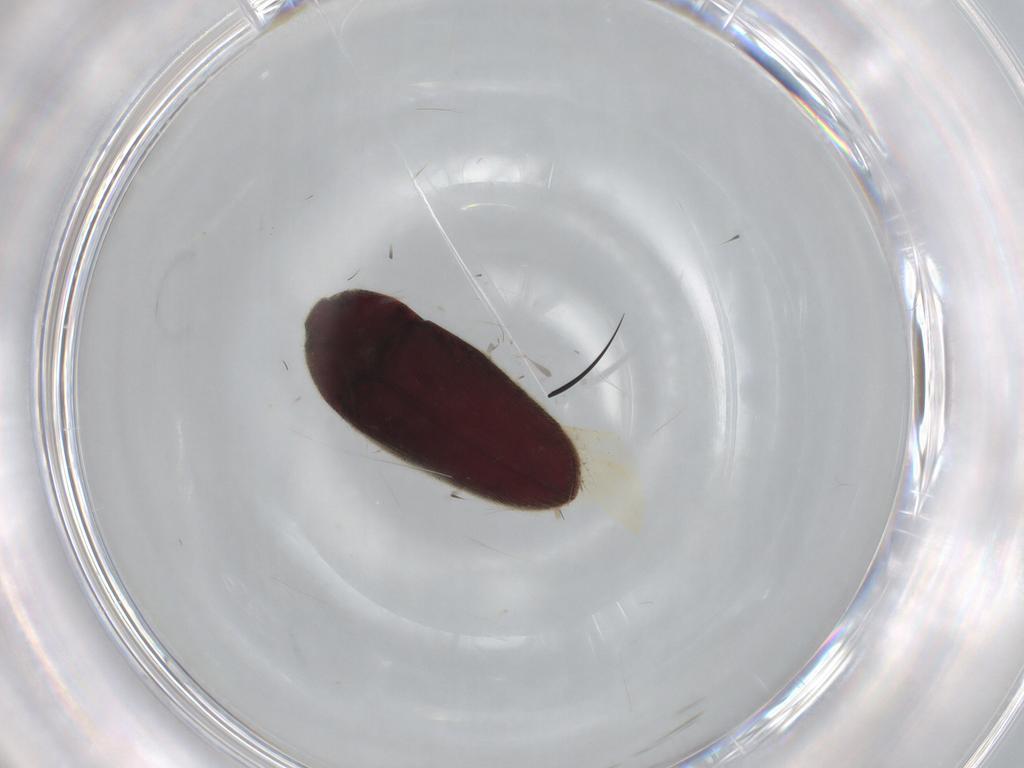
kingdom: Animalia
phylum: Arthropoda
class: Insecta
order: Coleoptera
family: Throscidae
